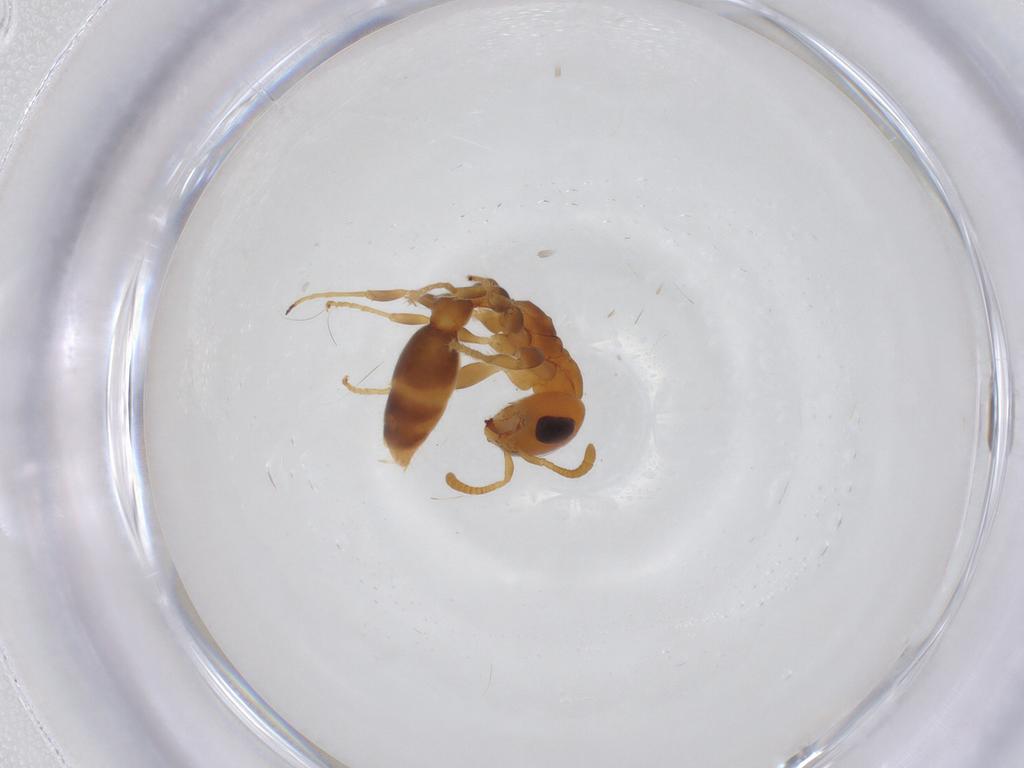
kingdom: Animalia
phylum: Arthropoda
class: Insecta
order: Hymenoptera
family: Formicidae
